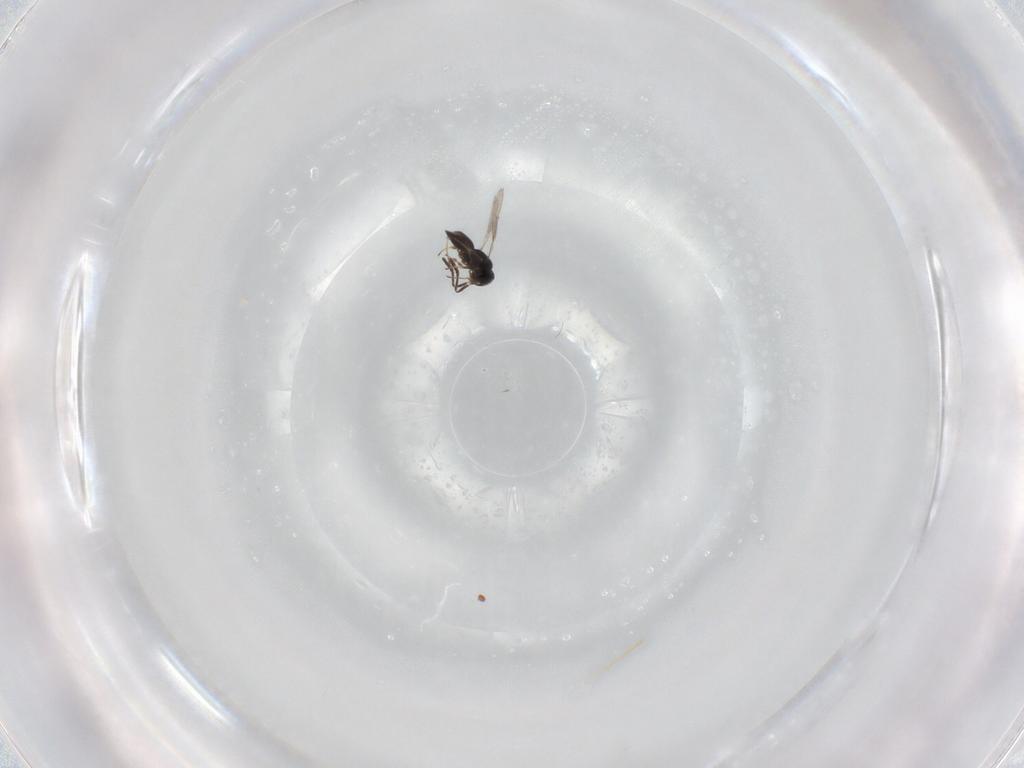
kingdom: Animalia
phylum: Arthropoda
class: Insecta
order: Hymenoptera
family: Scelionidae
